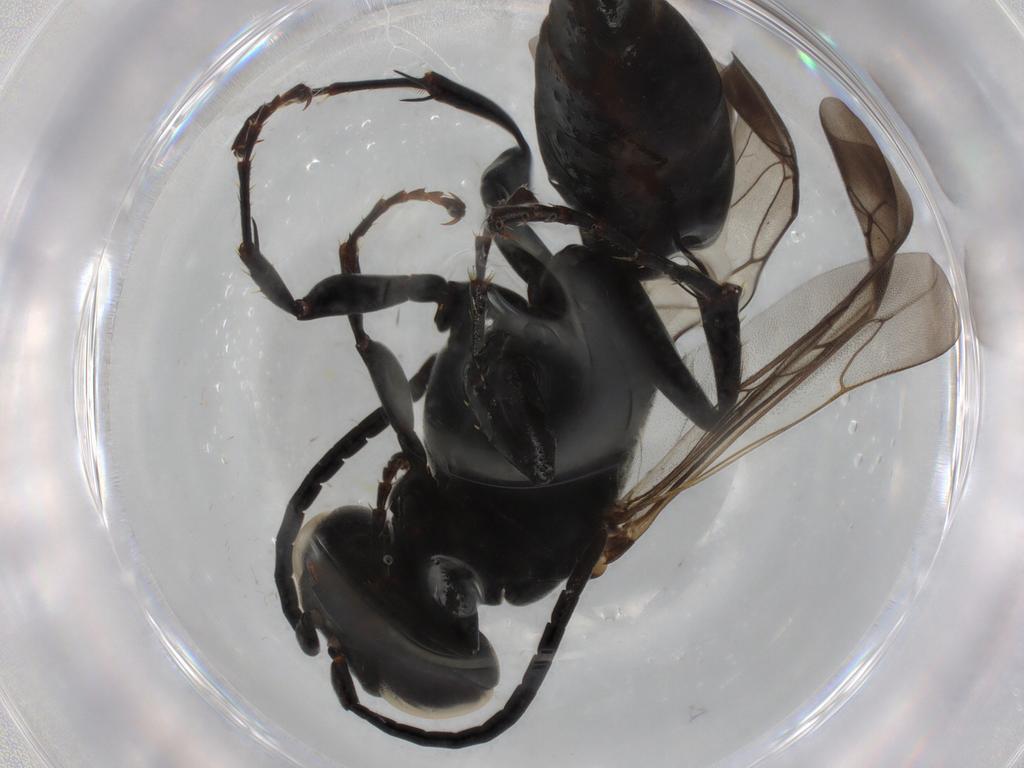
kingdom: Animalia
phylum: Arthropoda
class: Insecta
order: Hymenoptera
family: Crabronidae
